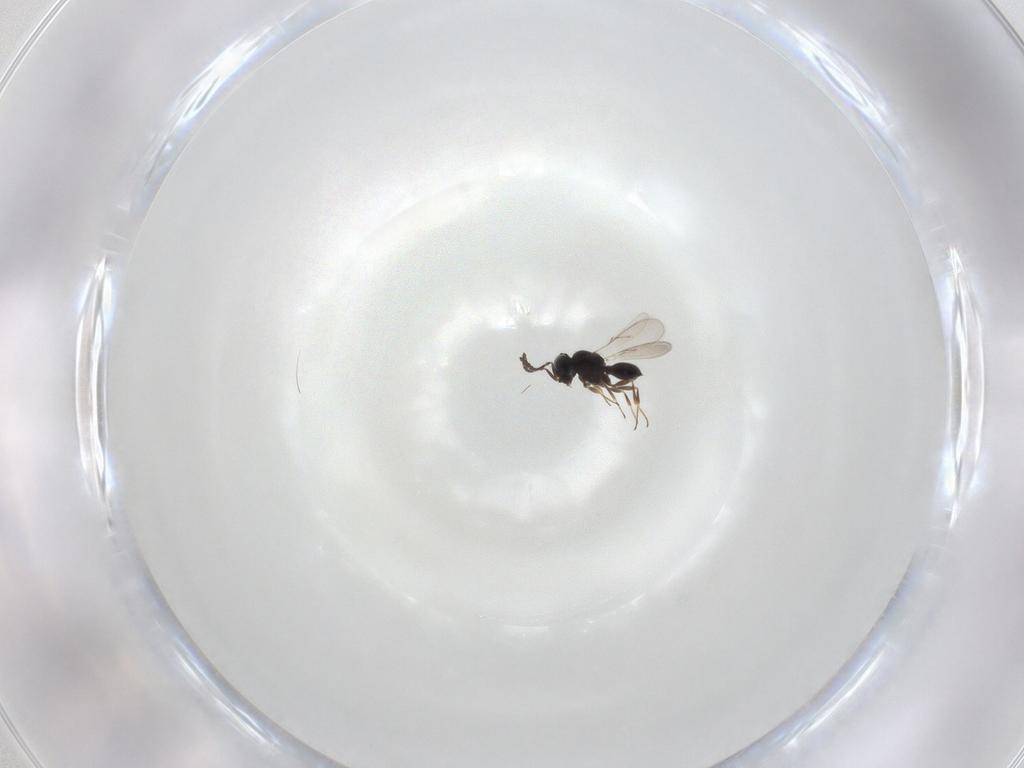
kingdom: Animalia
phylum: Arthropoda
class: Insecta
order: Hymenoptera
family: Scelionidae
